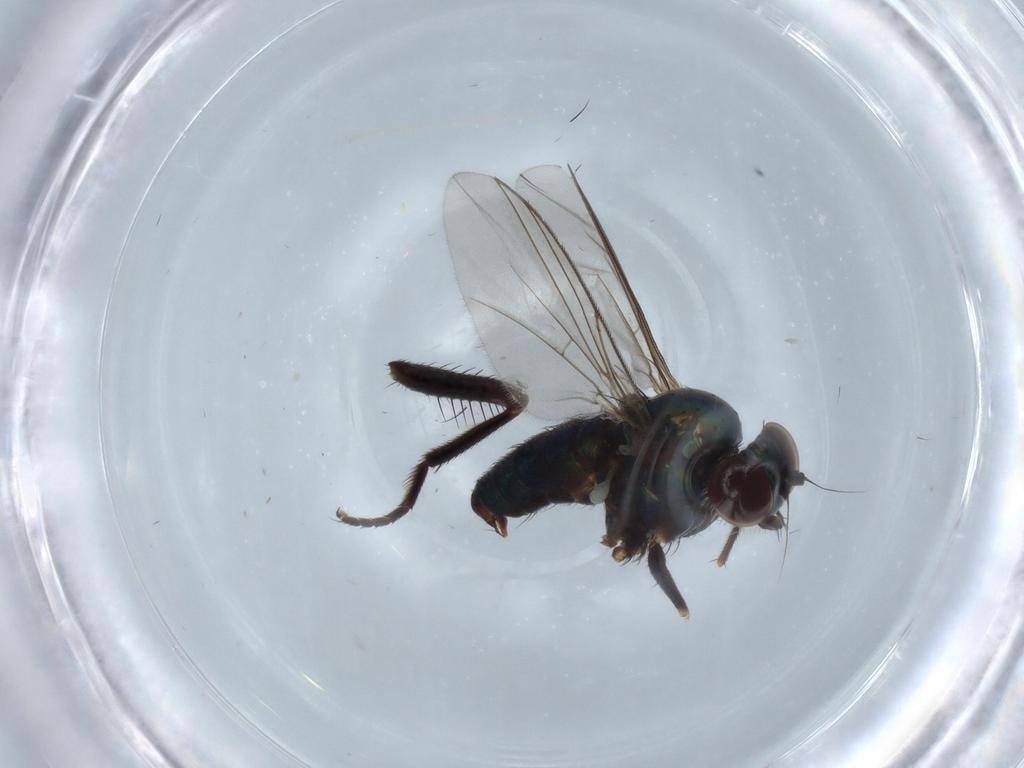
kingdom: Animalia
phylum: Arthropoda
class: Insecta
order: Diptera
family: Dolichopodidae
